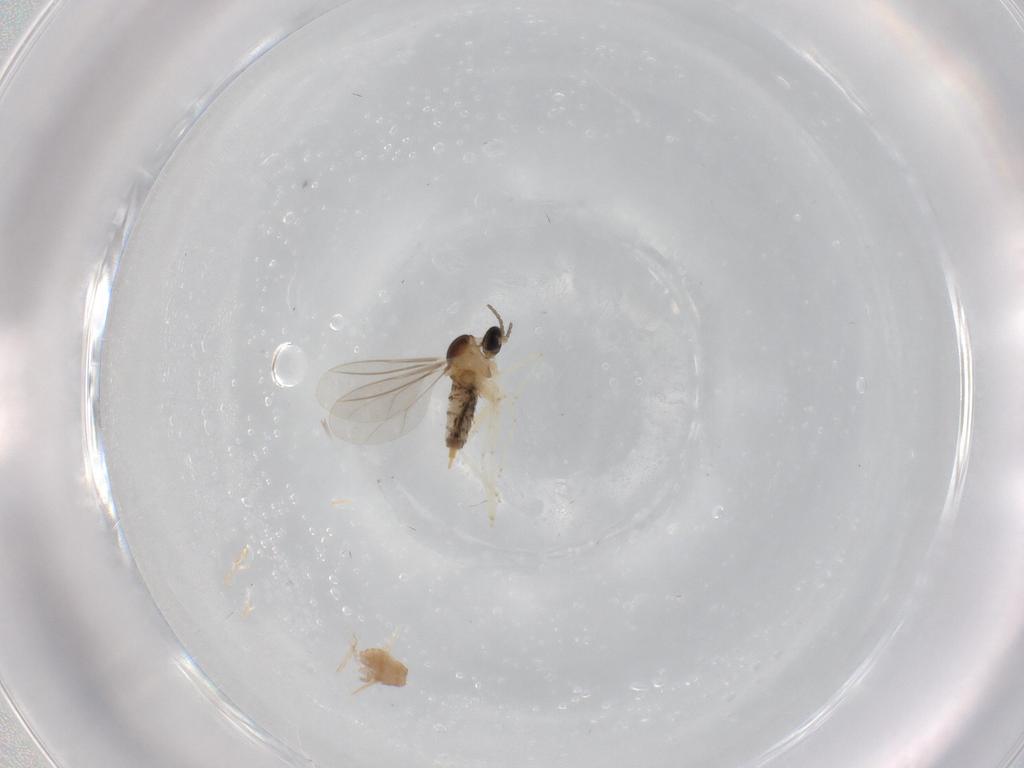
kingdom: Animalia
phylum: Arthropoda
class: Insecta
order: Diptera
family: Cecidomyiidae
